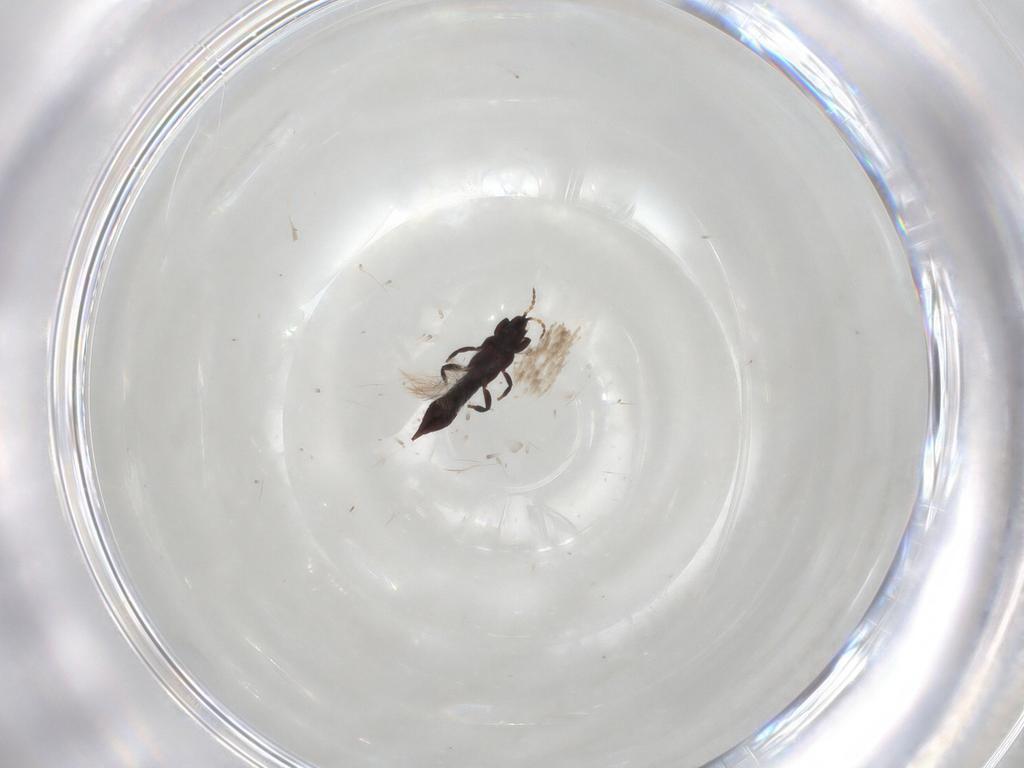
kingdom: Animalia
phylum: Arthropoda
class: Insecta
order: Thysanoptera
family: Phlaeothripidae
